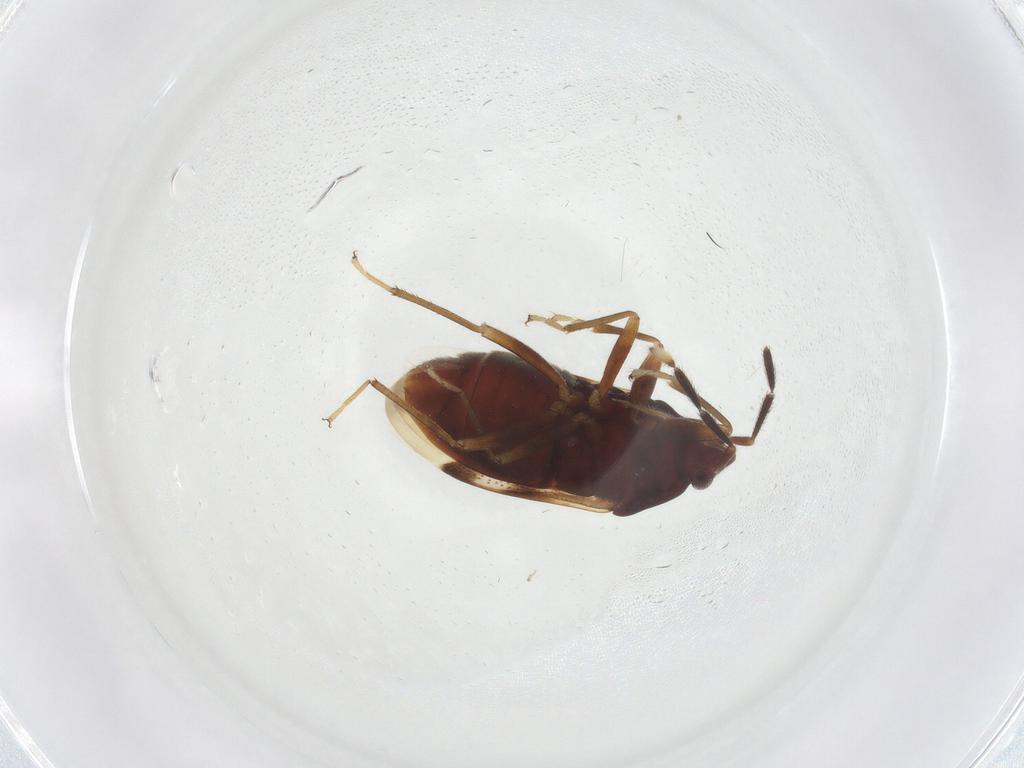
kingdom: Animalia
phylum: Arthropoda
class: Insecta
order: Hemiptera
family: Rhyparochromidae
